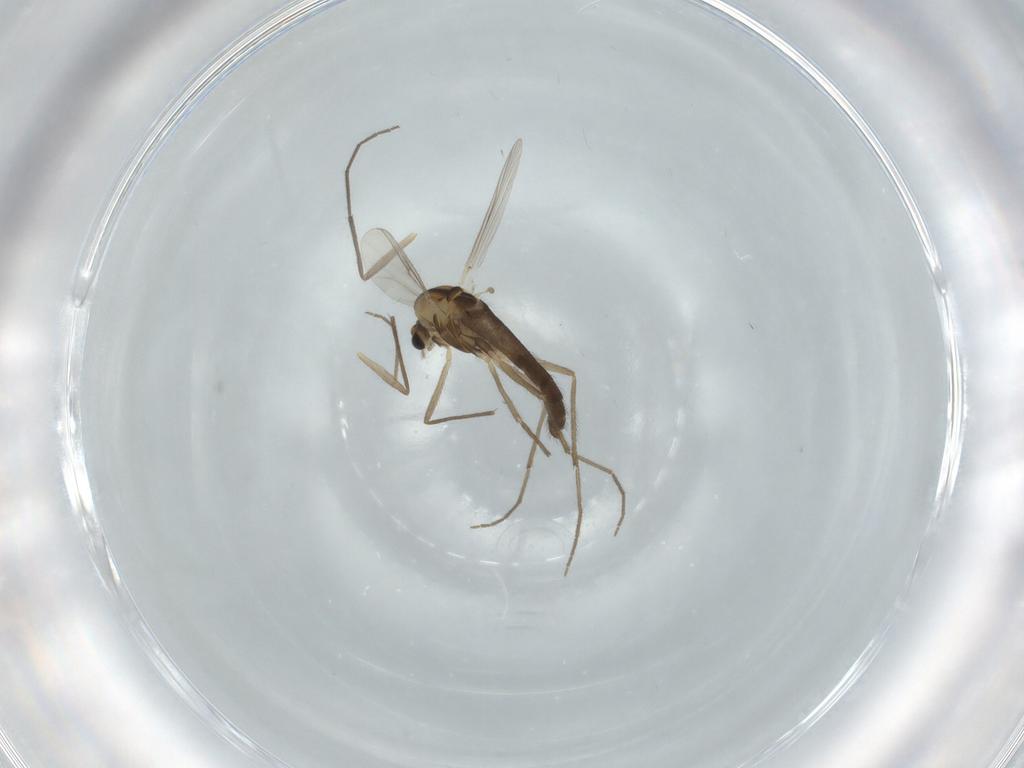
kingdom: Animalia
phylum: Arthropoda
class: Insecta
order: Diptera
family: Chironomidae
